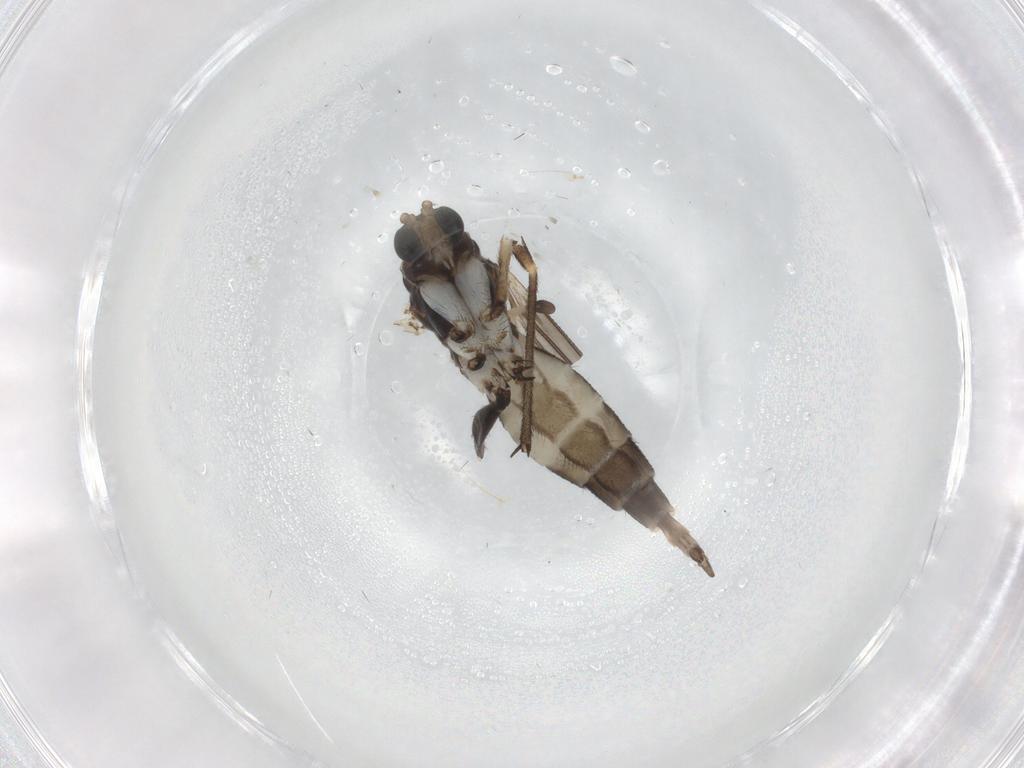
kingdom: Animalia
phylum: Arthropoda
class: Insecta
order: Diptera
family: Sciaridae
